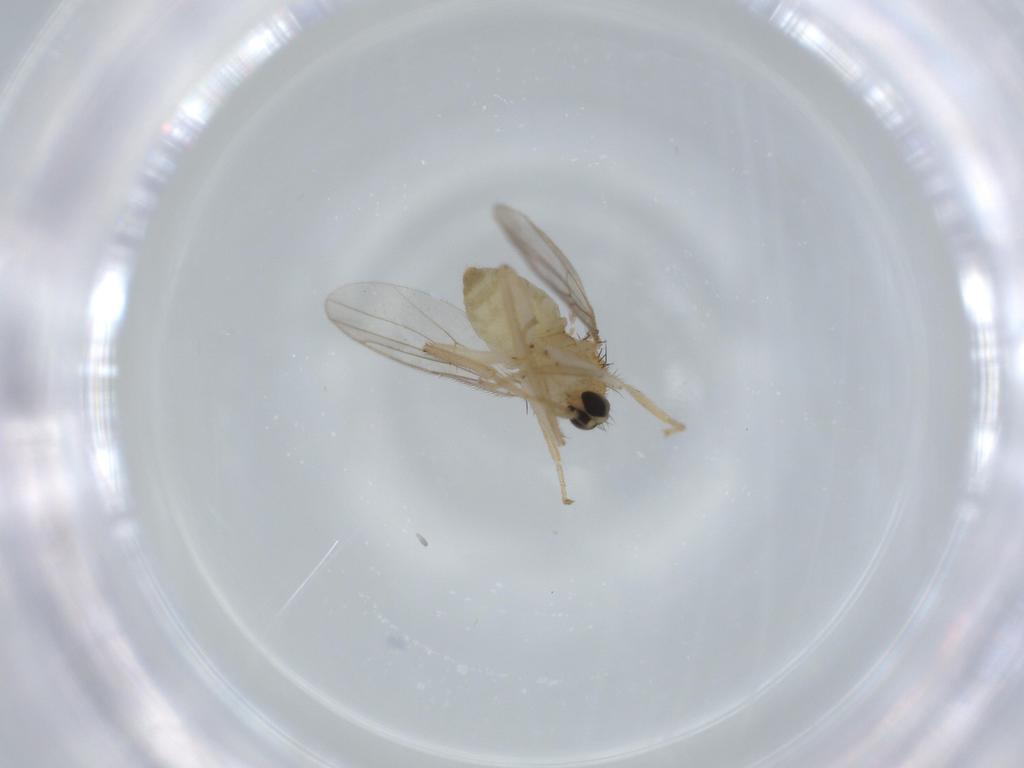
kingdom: Animalia
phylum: Arthropoda
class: Insecta
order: Diptera
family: Hybotidae
